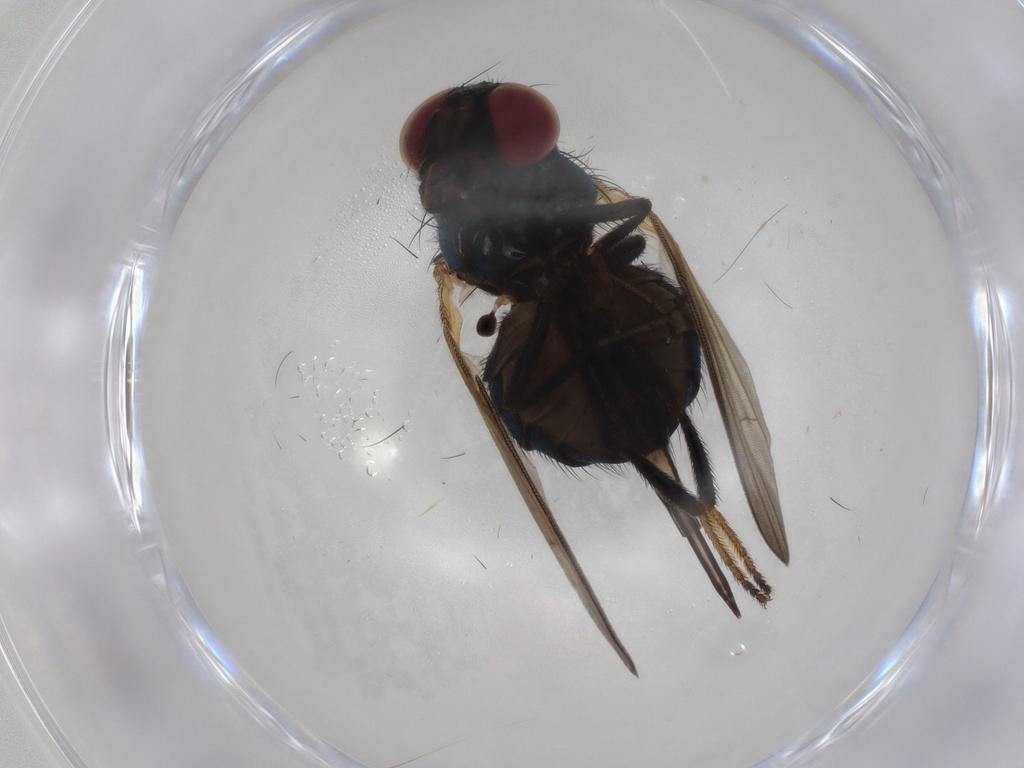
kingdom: Animalia
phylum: Arthropoda
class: Insecta
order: Diptera
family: Lonchaeidae
